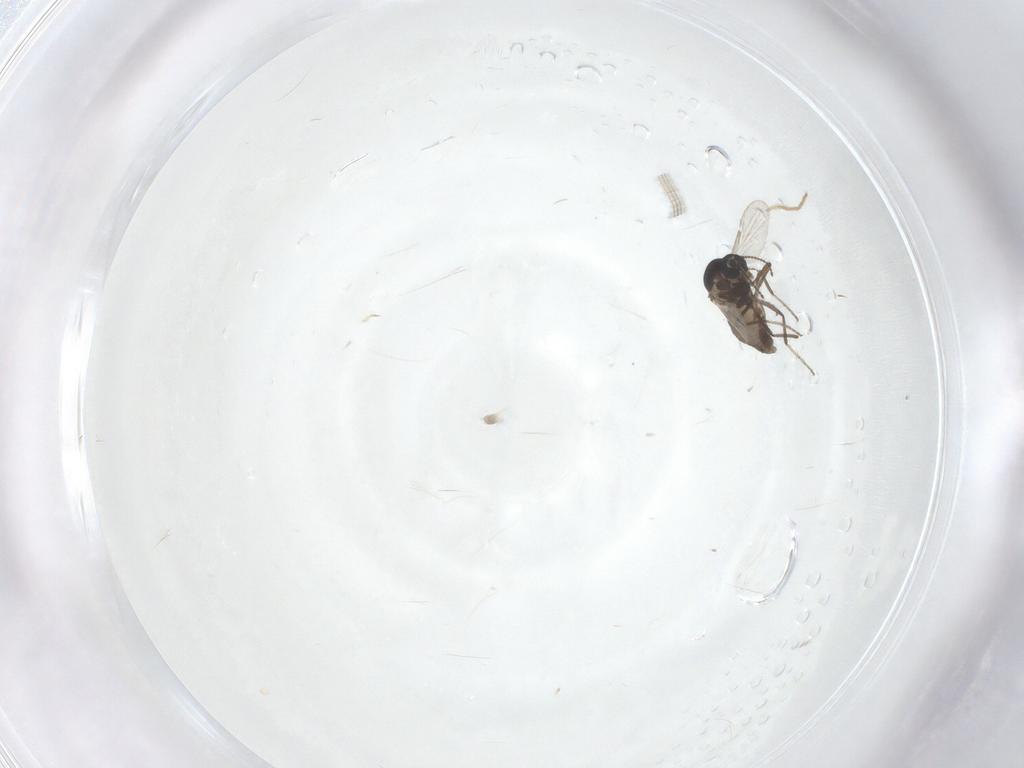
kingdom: Animalia
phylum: Arthropoda
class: Insecta
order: Diptera
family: Ceratopogonidae
